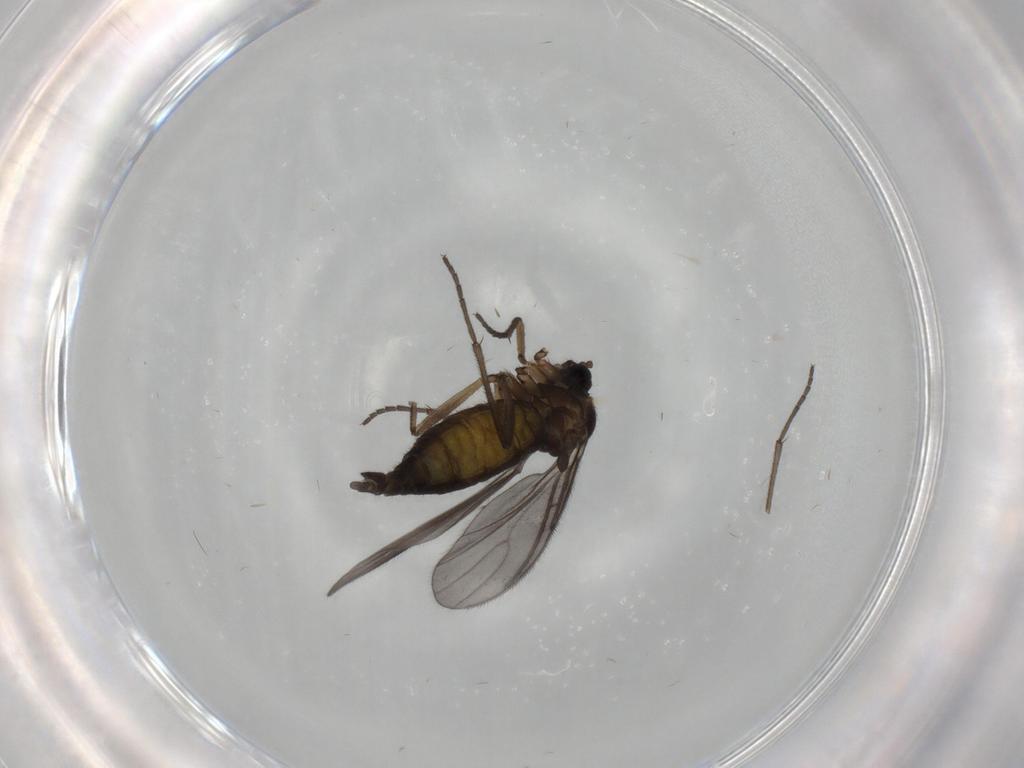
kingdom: Animalia
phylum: Arthropoda
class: Insecta
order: Diptera
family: Sciaridae
